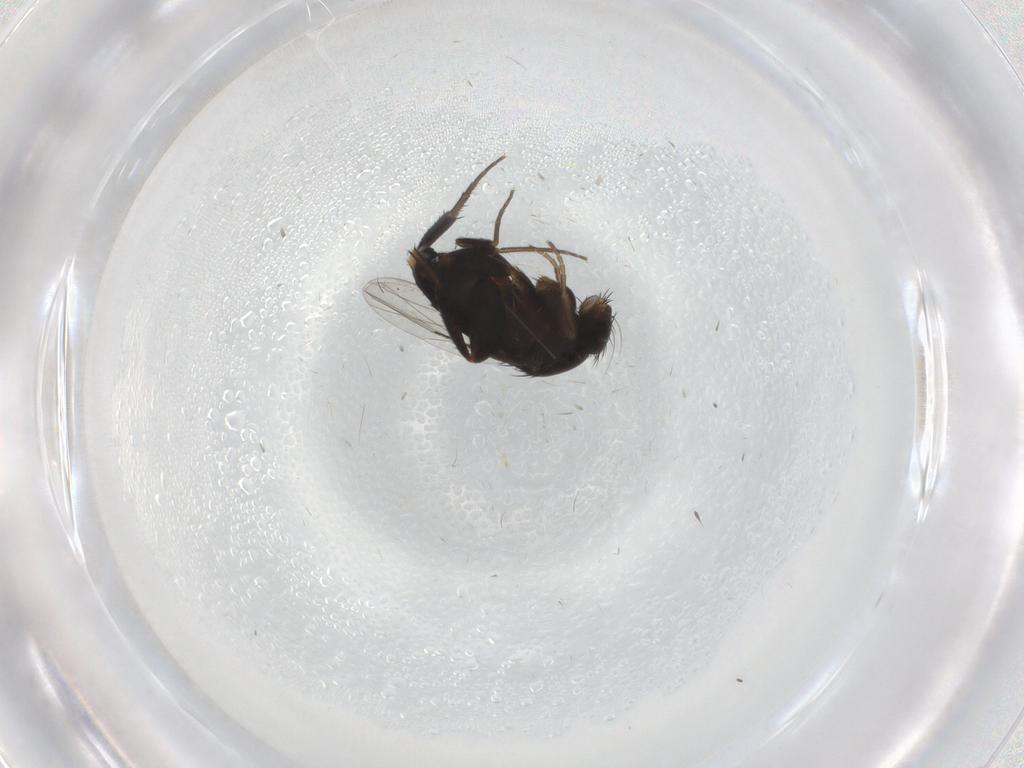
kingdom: Animalia
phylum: Arthropoda
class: Insecta
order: Diptera
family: Phoridae
